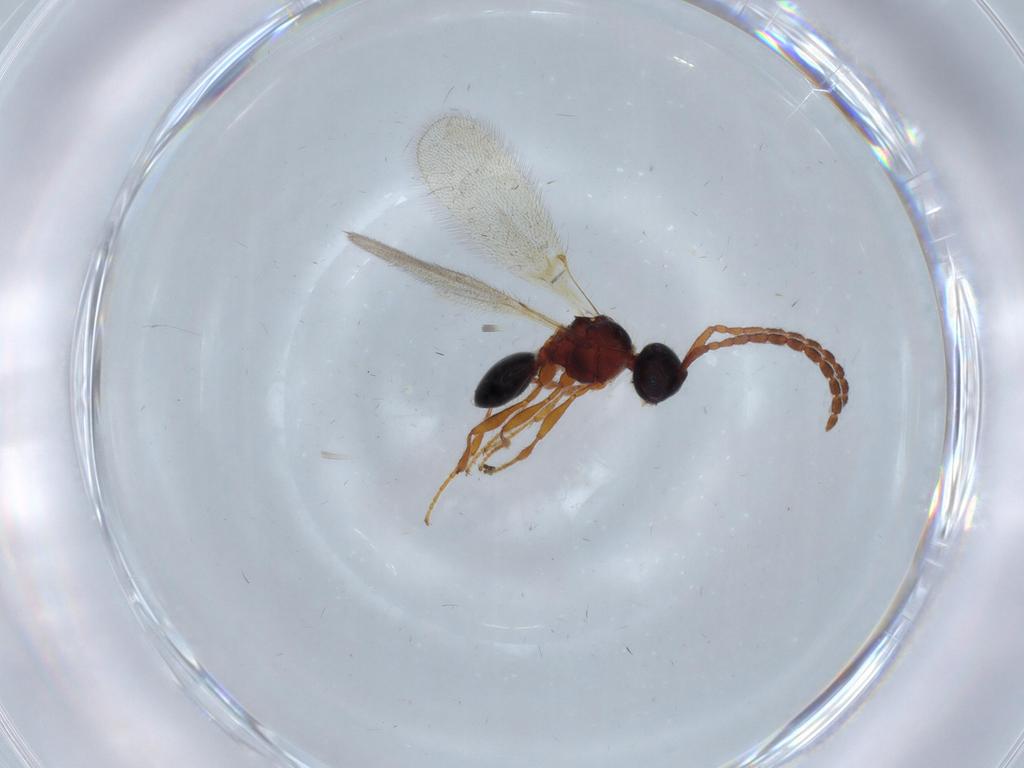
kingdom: Animalia
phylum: Arthropoda
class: Insecta
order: Hymenoptera
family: Diapriidae
